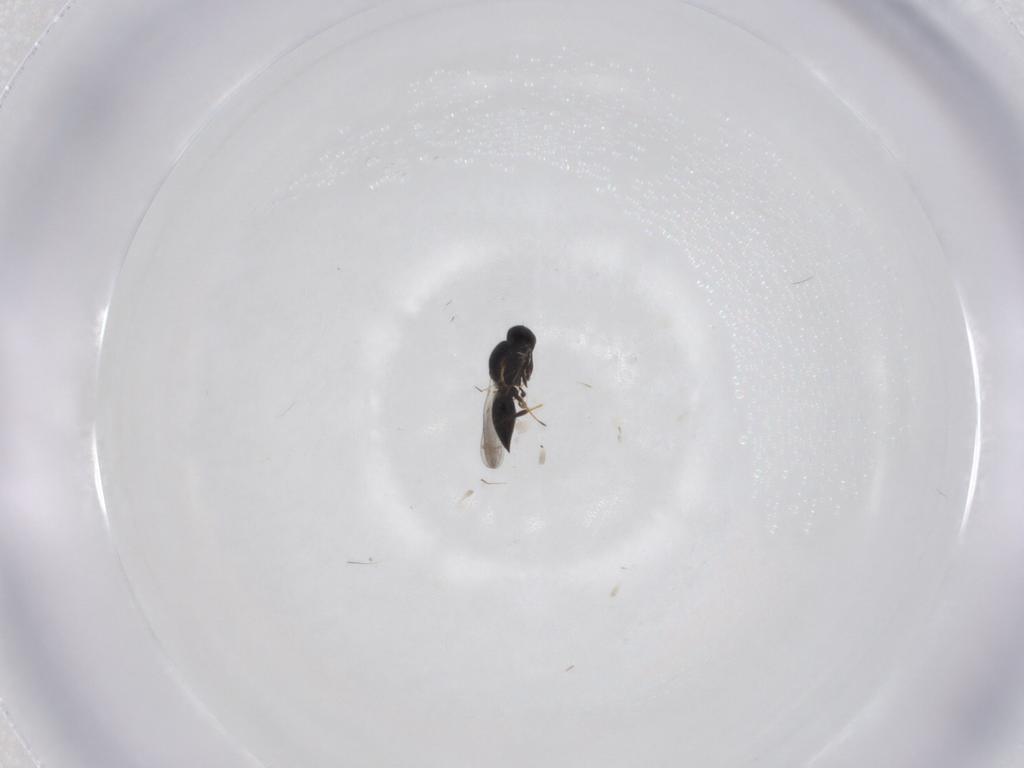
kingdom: Animalia
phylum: Arthropoda
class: Insecta
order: Hymenoptera
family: Platygastridae
